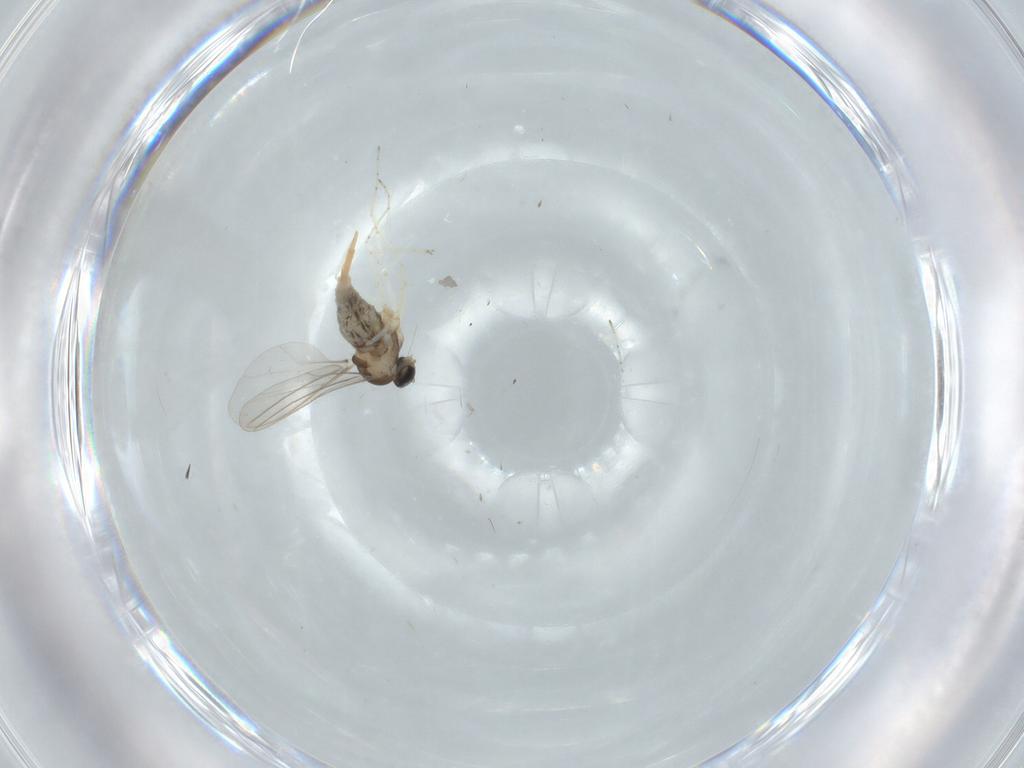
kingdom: Animalia
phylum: Arthropoda
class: Insecta
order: Diptera
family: Cecidomyiidae
